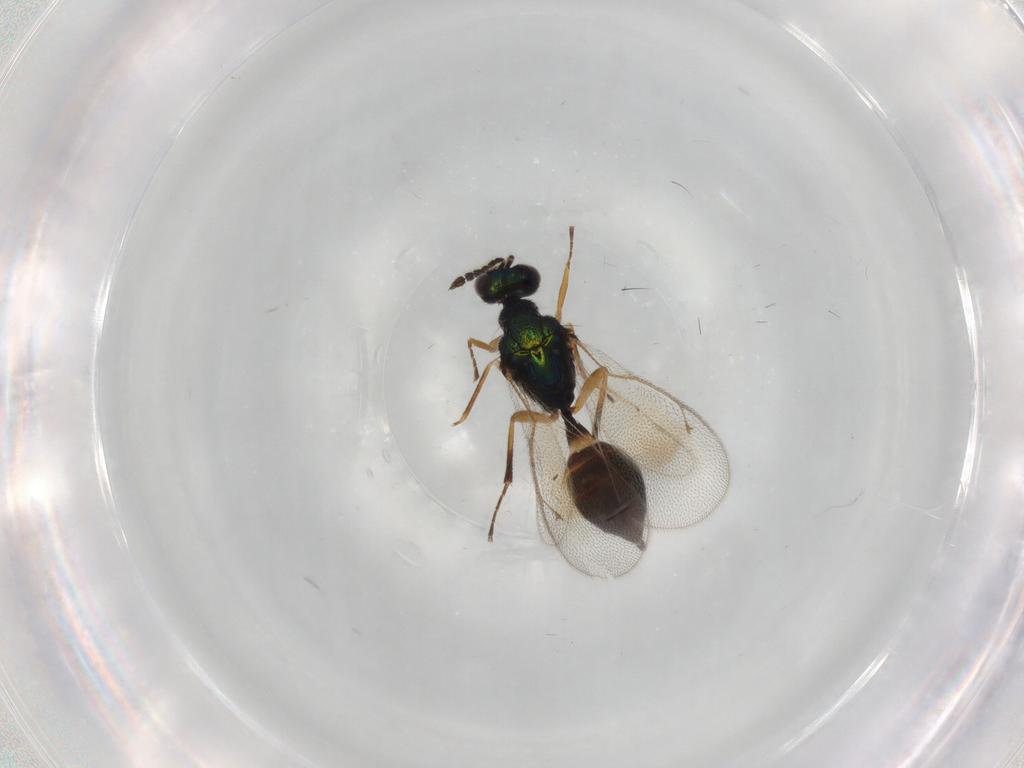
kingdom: Animalia
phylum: Arthropoda
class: Insecta
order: Hymenoptera
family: Eulophidae
